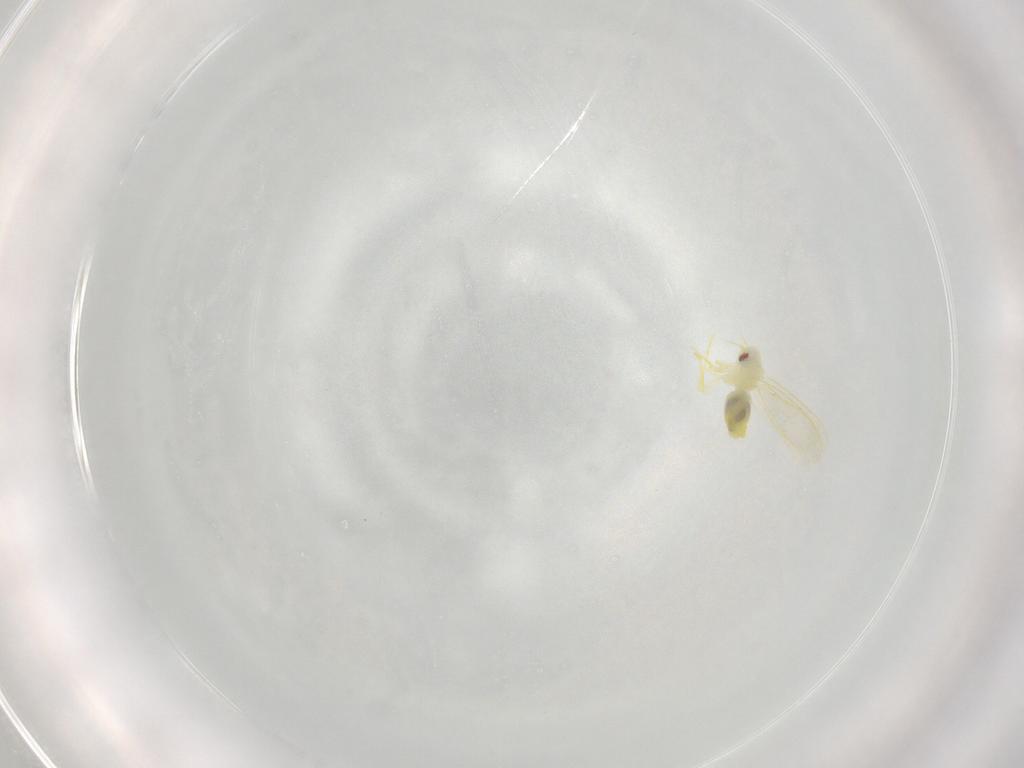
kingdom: Animalia
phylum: Arthropoda
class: Insecta
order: Hemiptera
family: Aleyrodidae
